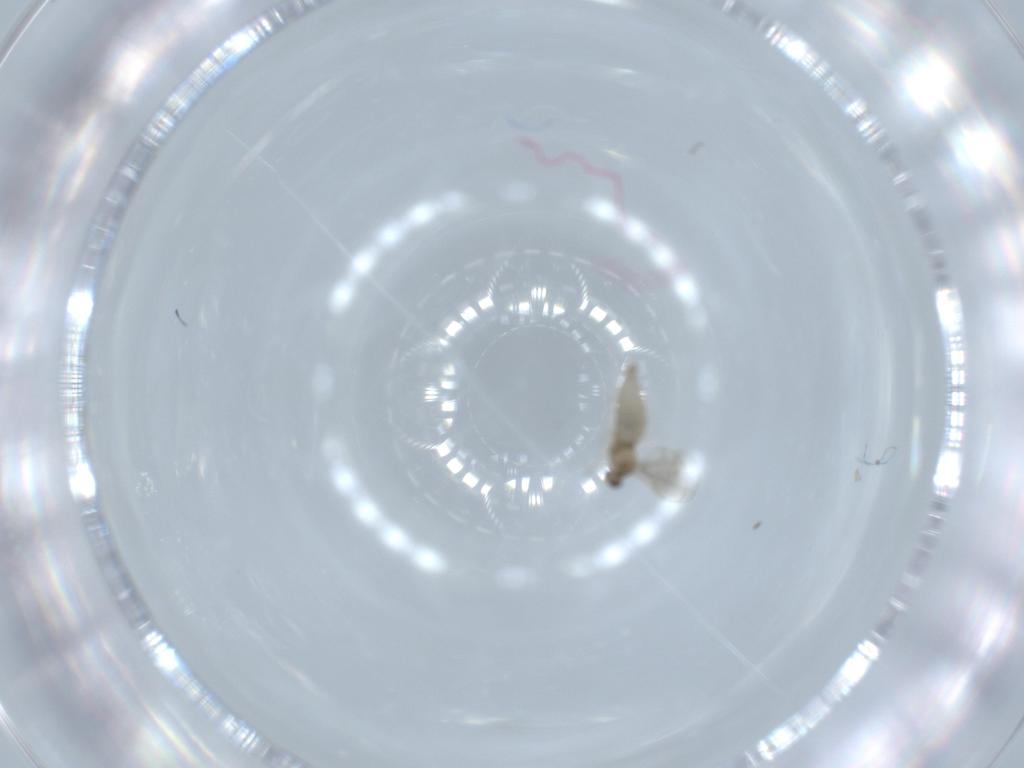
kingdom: Animalia
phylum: Arthropoda
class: Insecta
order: Diptera
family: Cecidomyiidae
